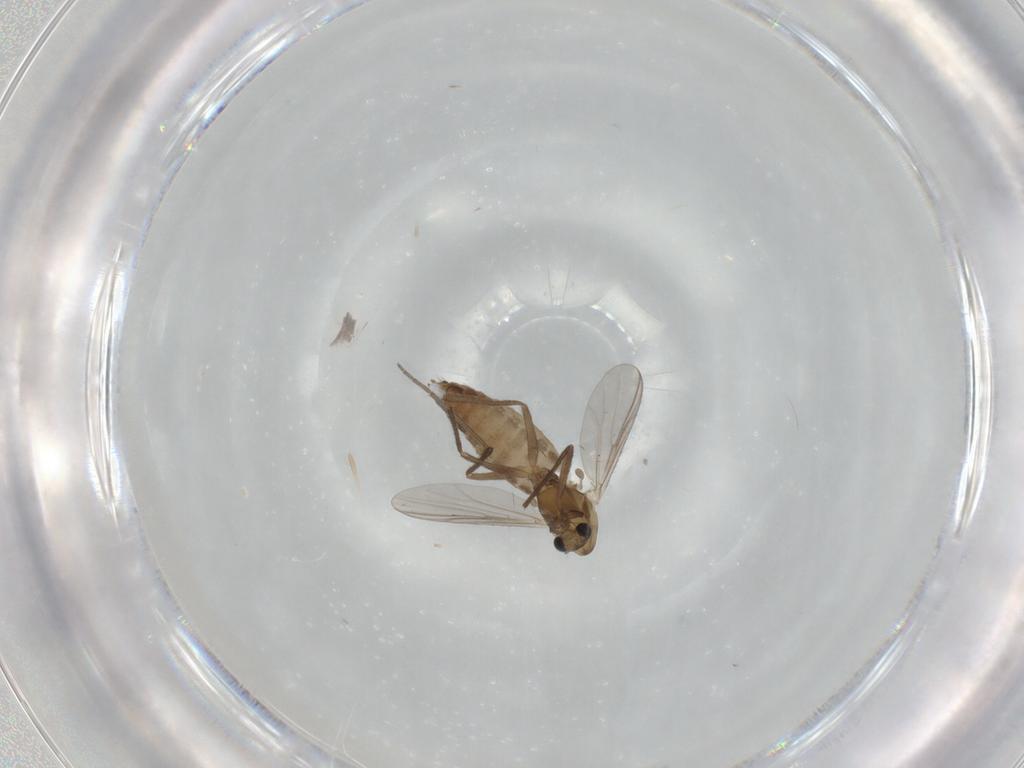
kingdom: Animalia
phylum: Arthropoda
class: Insecta
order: Diptera
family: Chironomidae
